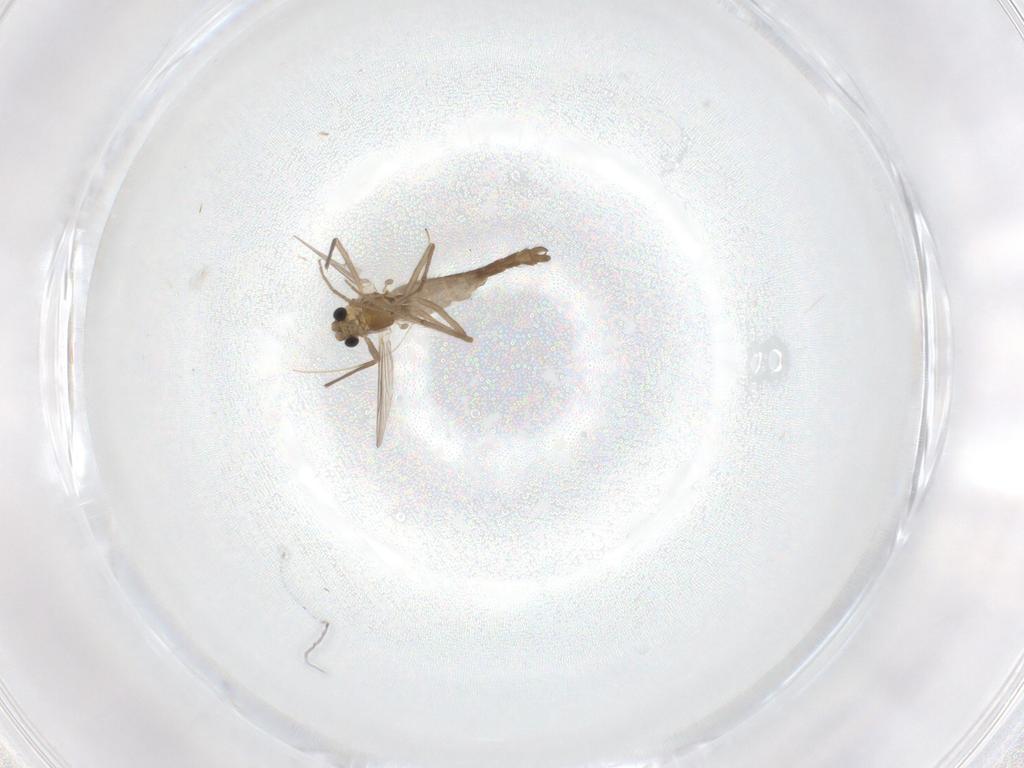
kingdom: Animalia
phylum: Arthropoda
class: Insecta
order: Diptera
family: Chironomidae
